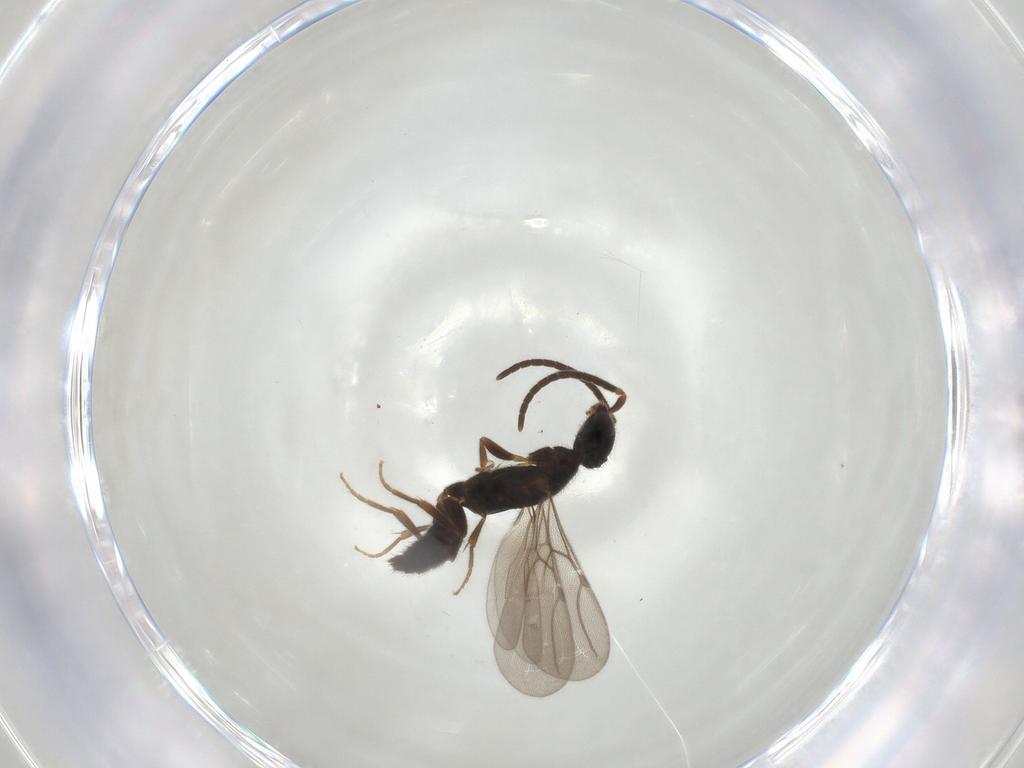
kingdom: Animalia
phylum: Arthropoda
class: Insecta
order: Hymenoptera
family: Bethylidae
